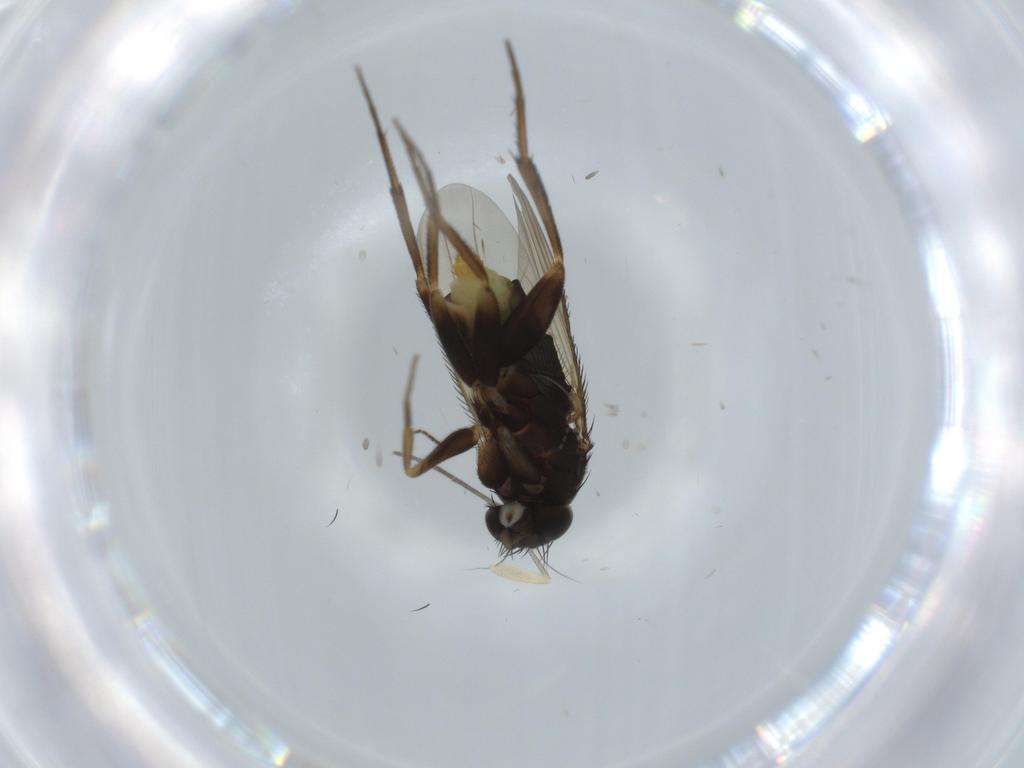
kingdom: Animalia
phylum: Arthropoda
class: Insecta
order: Diptera
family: Phoridae
